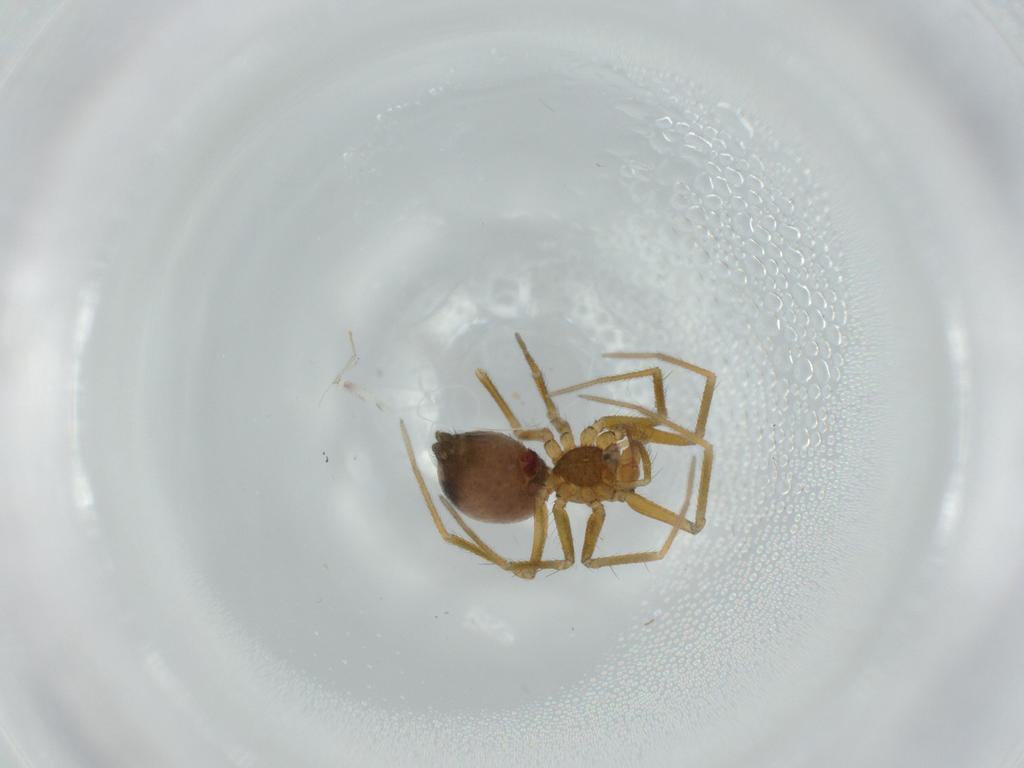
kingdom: Animalia
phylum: Arthropoda
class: Arachnida
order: Araneae
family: Linyphiidae
